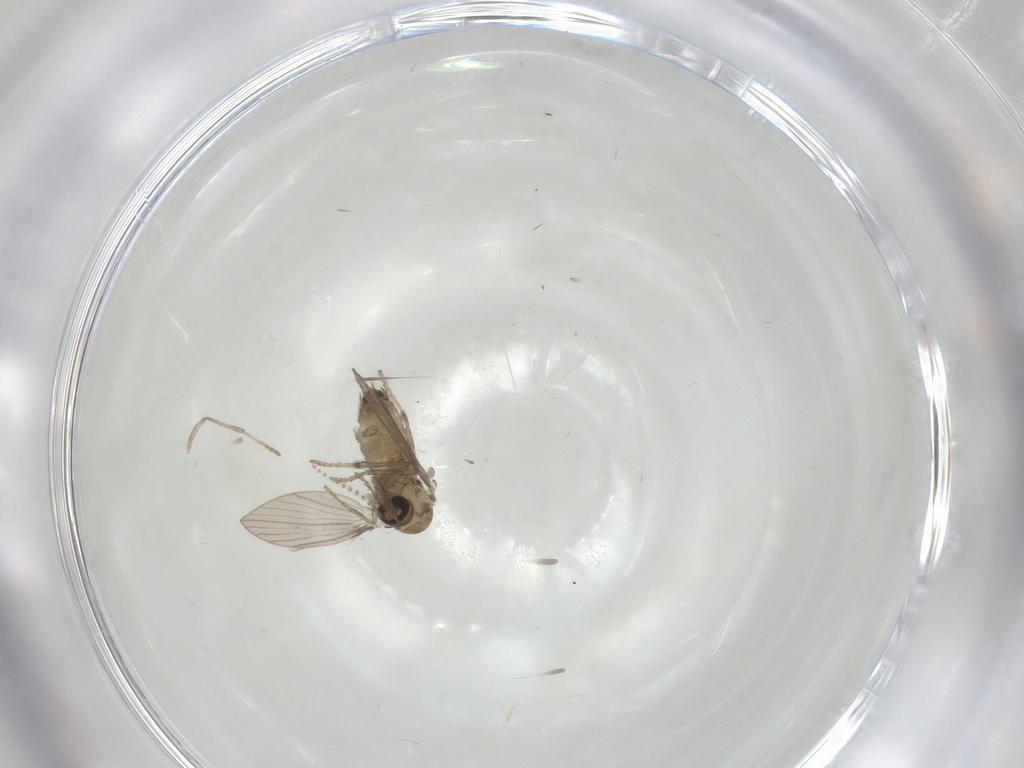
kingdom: Animalia
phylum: Arthropoda
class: Insecta
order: Diptera
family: Psychodidae
